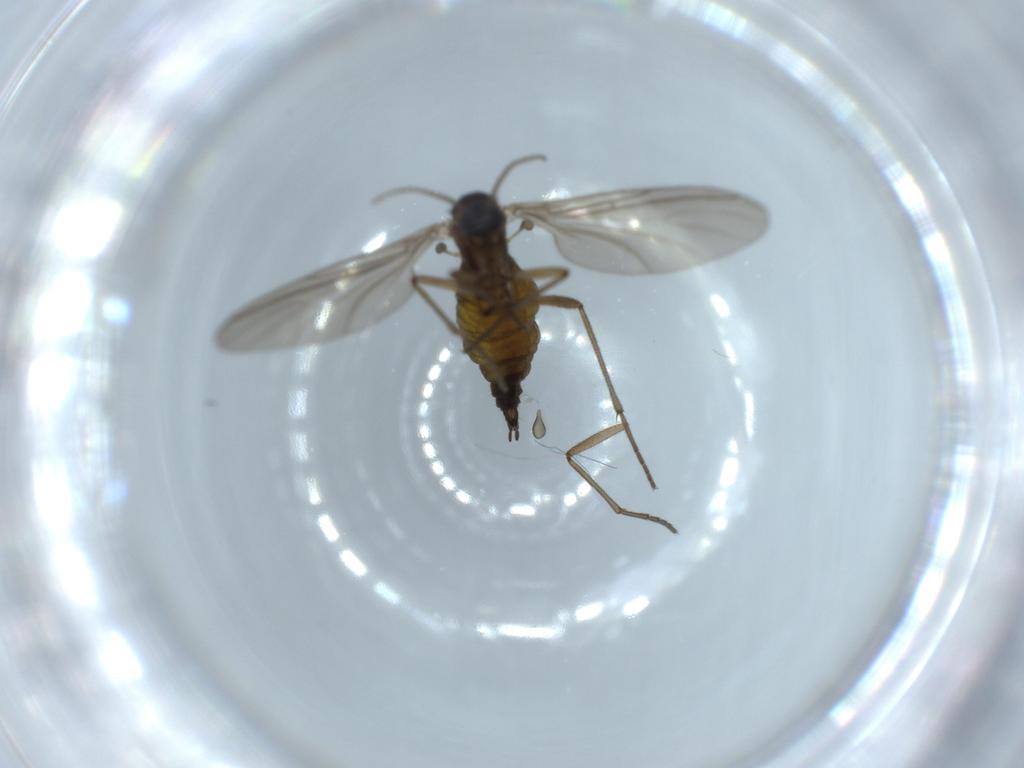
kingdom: Animalia
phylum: Arthropoda
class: Insecta
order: Diptera
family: Sciaridae
